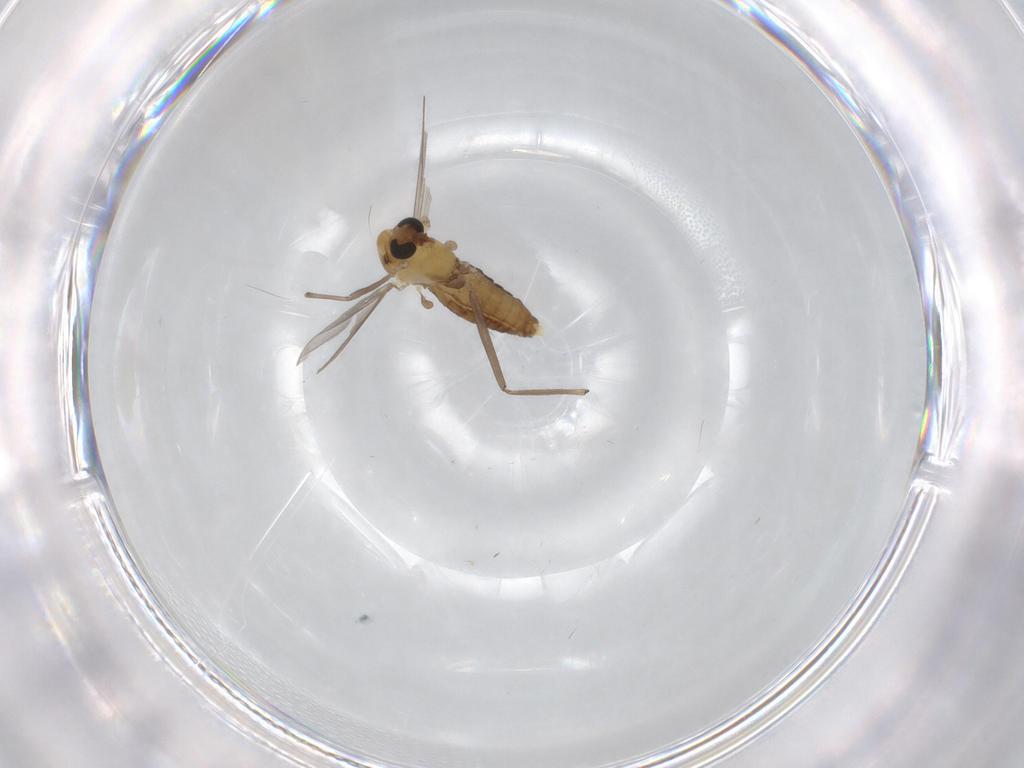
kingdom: Animalia
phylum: Arthropoda
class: Insecta
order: Diptera
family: Chironomidae
